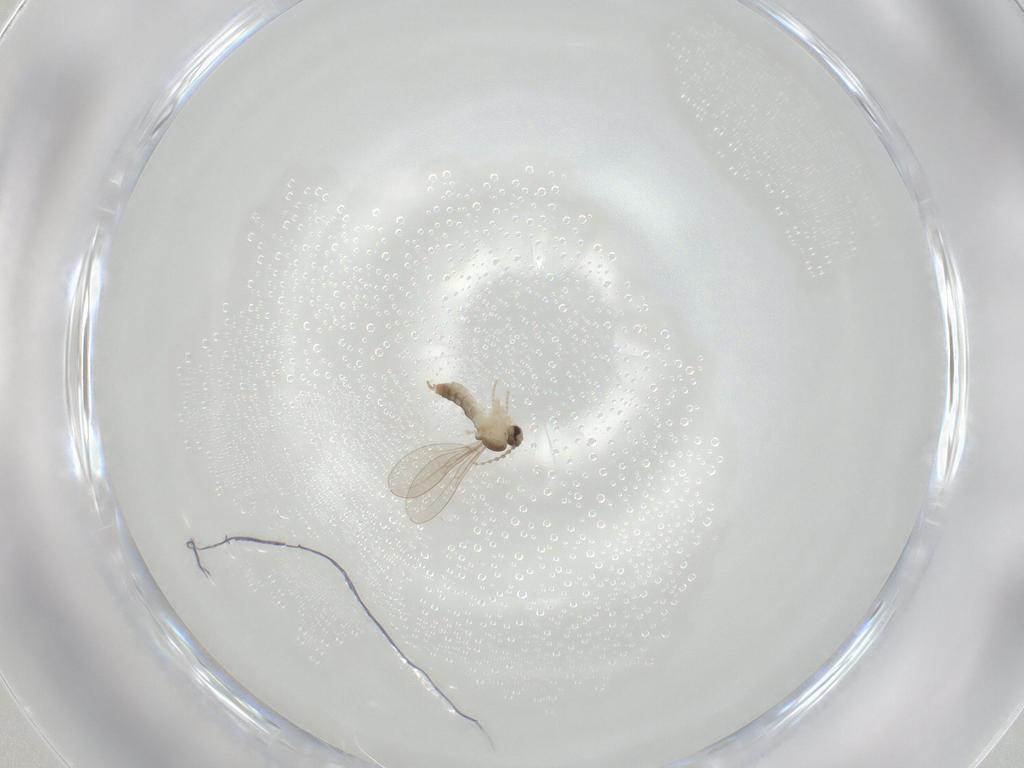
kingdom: Animalia
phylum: Arthropoda
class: Insecta
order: Diptera
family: Cecidomyiidae
